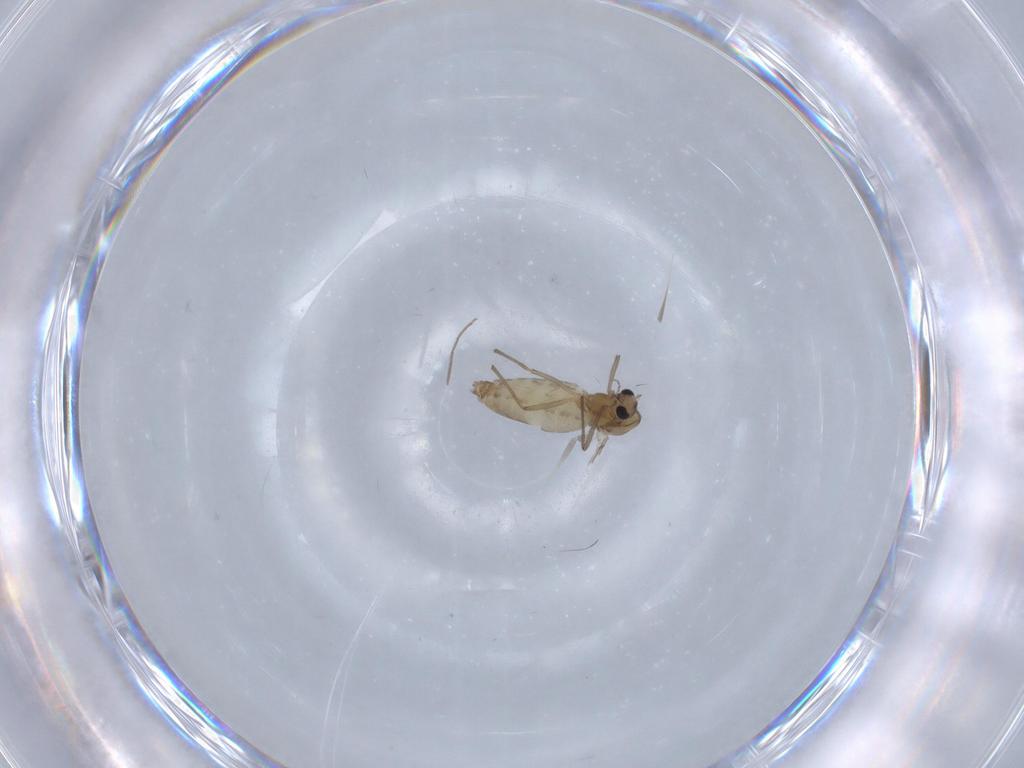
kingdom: Animalia
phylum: Arthropoda
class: Insecta
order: Diptera
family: Chironomidae
